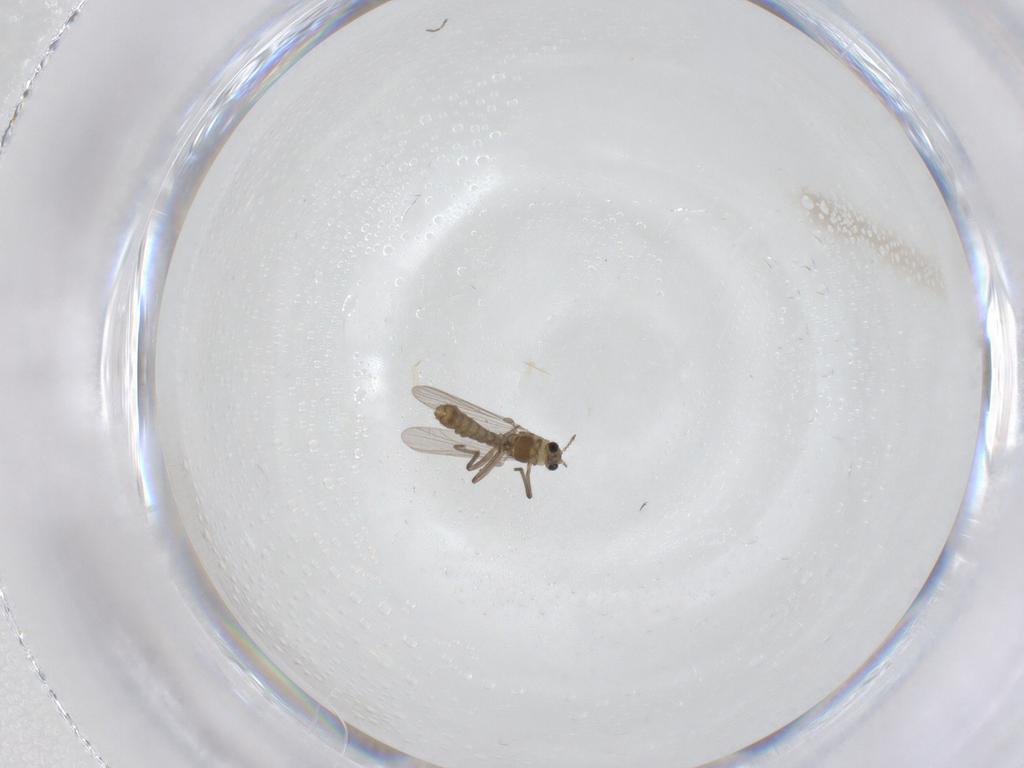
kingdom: Animalia
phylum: Arthropoda
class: Insecta
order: Diptera
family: Chironomidae
